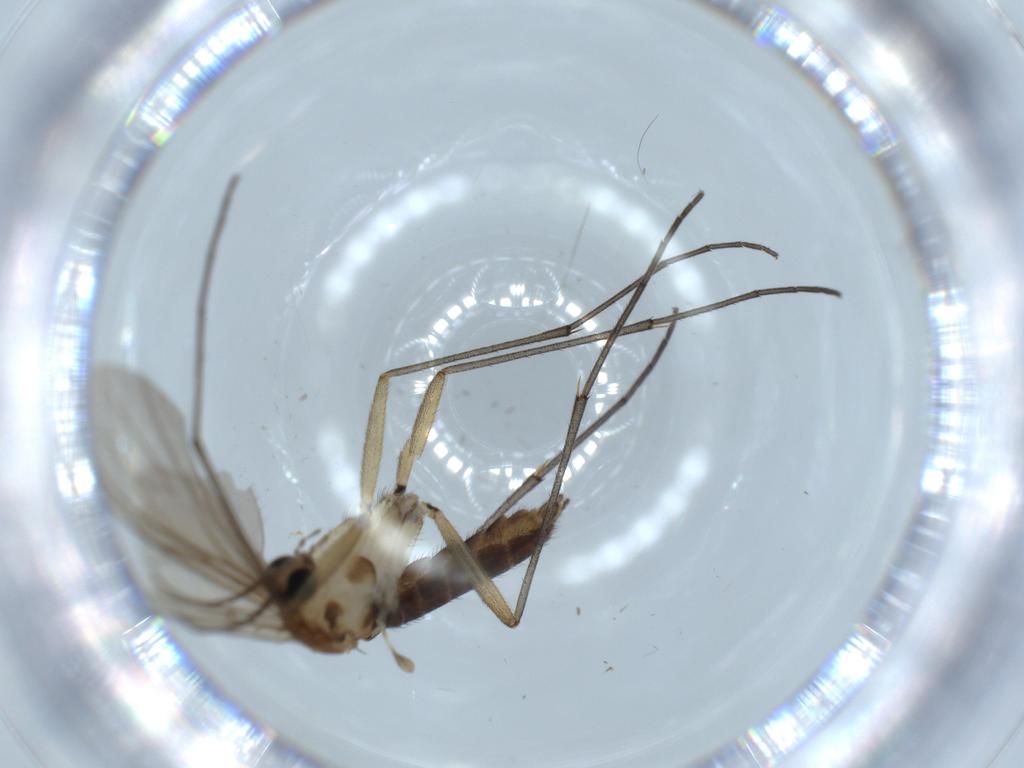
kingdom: Animalia
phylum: Arthropoda
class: Insecta
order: Diptera
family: Sciaridae
